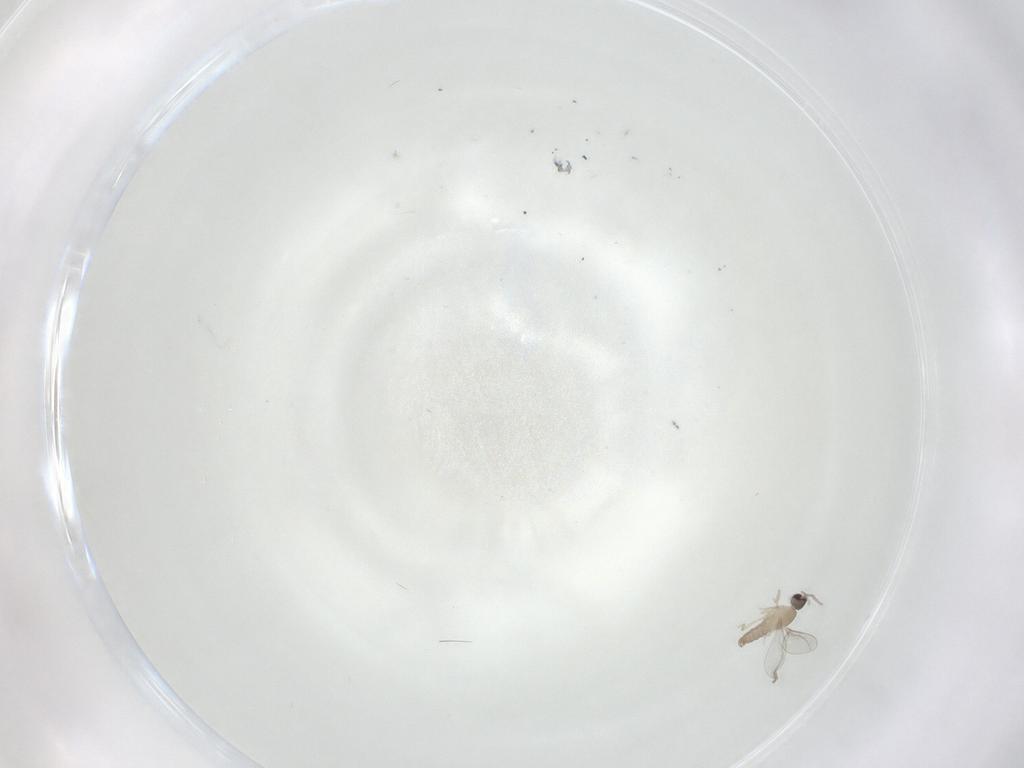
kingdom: Animalia
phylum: Arthropoda
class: Insecta
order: Diptera
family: Cecidomyiidae
